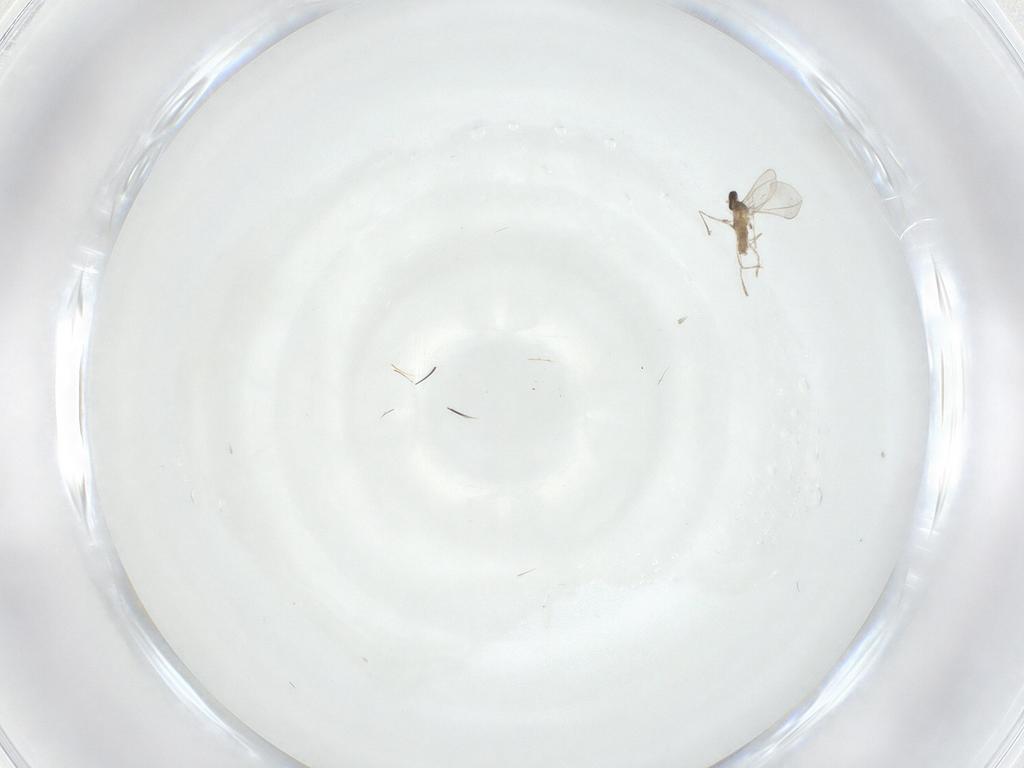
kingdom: Animalia
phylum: Arthropoda
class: Insecta
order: Diptera
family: Cecidomyiidae
